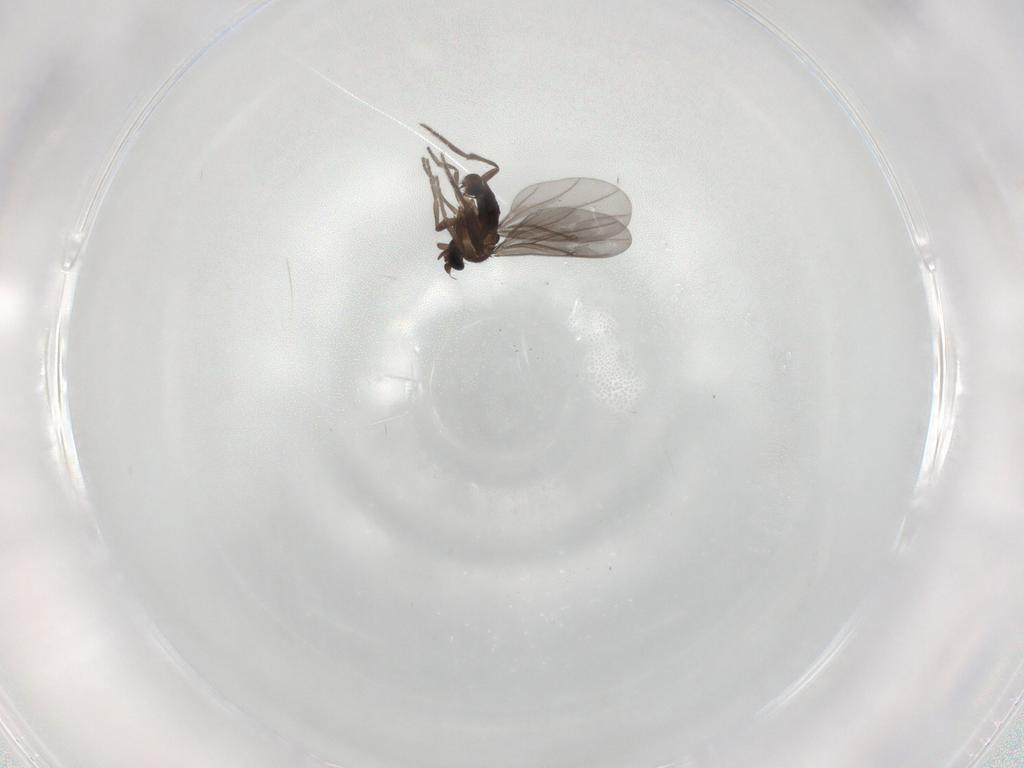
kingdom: Animalia
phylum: Arthropoda
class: Insecta
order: Diptera
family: Phoridae
